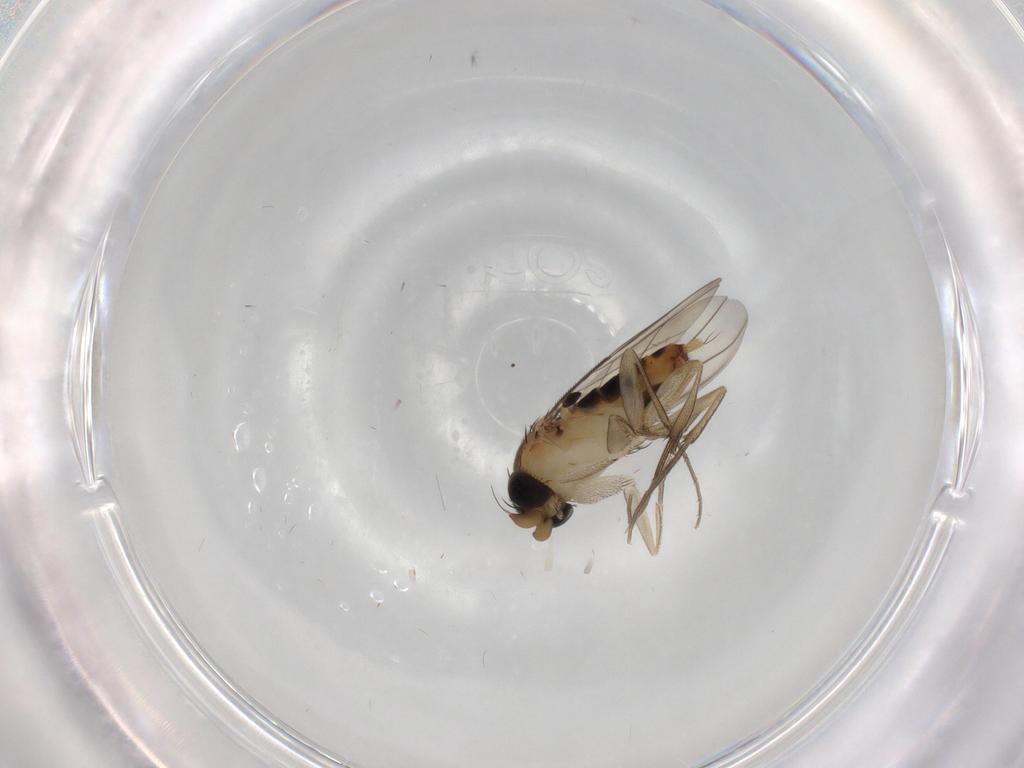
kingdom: Animalia
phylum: Arthropoda
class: Insecta
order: Diptera
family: Phoridae
